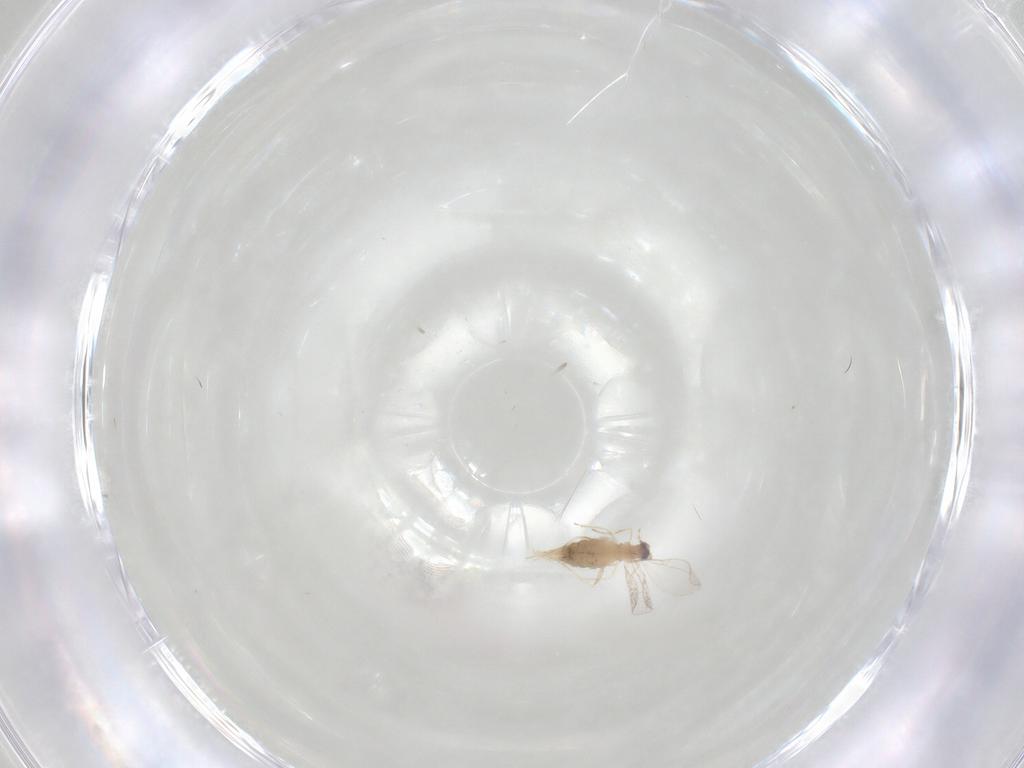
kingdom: Animalia
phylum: Arthropoda
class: Insecta
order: Diptera
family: Cecidomyiidae
